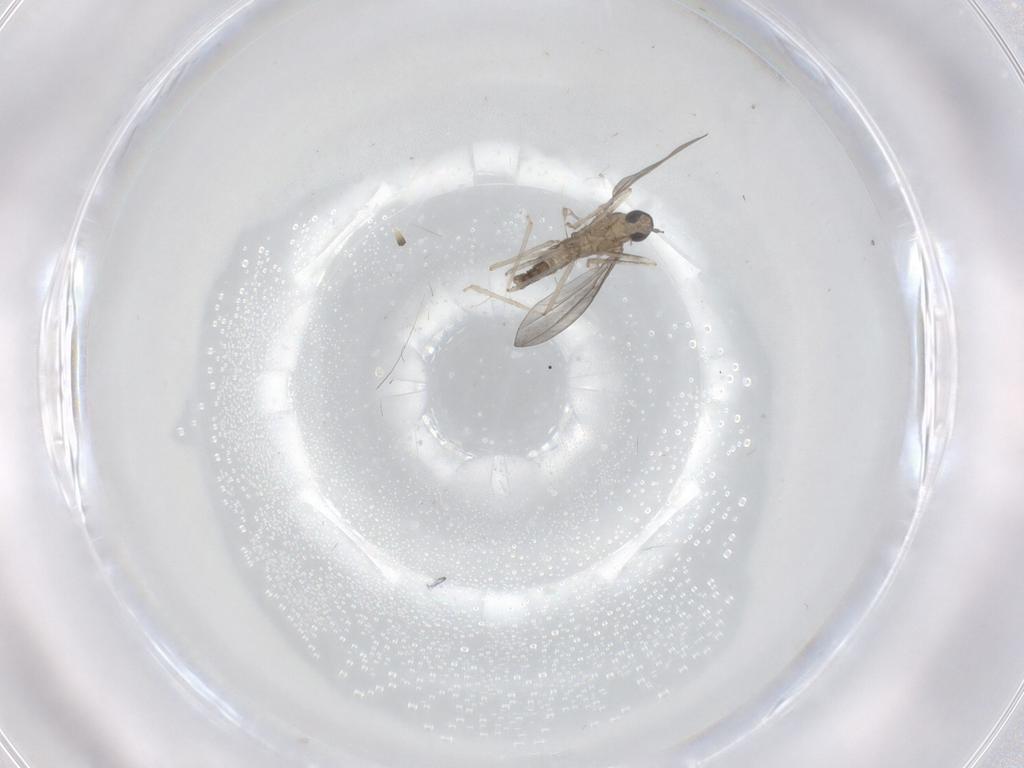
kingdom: Animalia
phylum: Arthropoda
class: Insecta
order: Diptera
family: Cecidomyiidae
